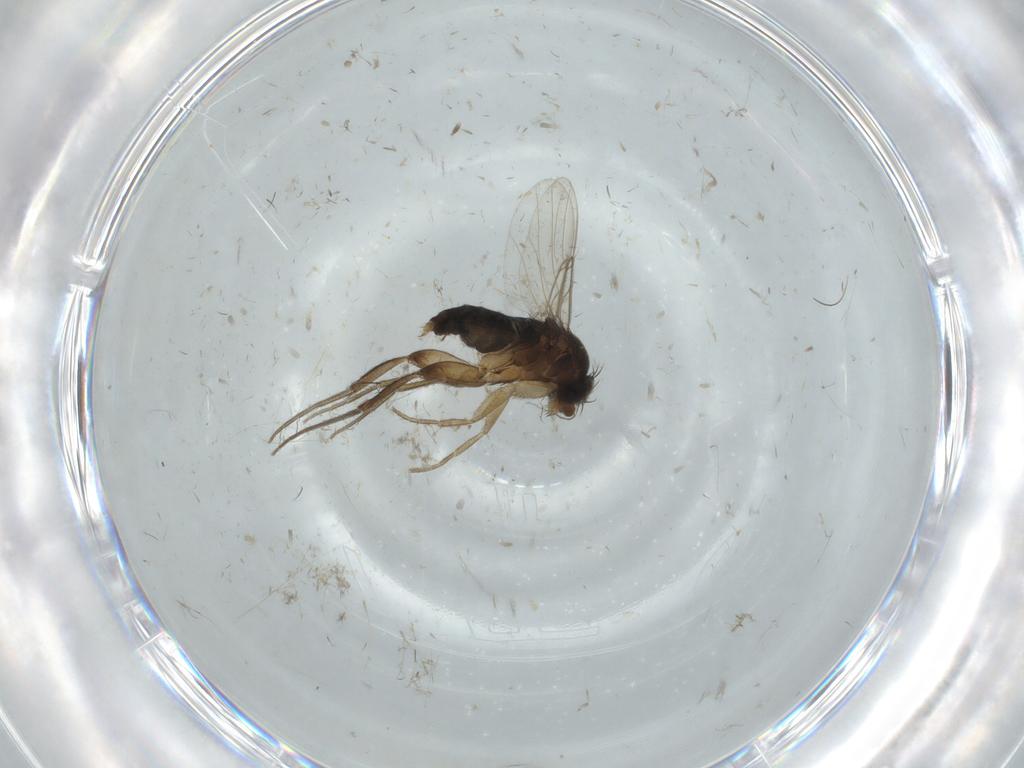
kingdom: Animalia
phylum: Arthropoda
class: Insecta
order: Diptera
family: Phoridae
